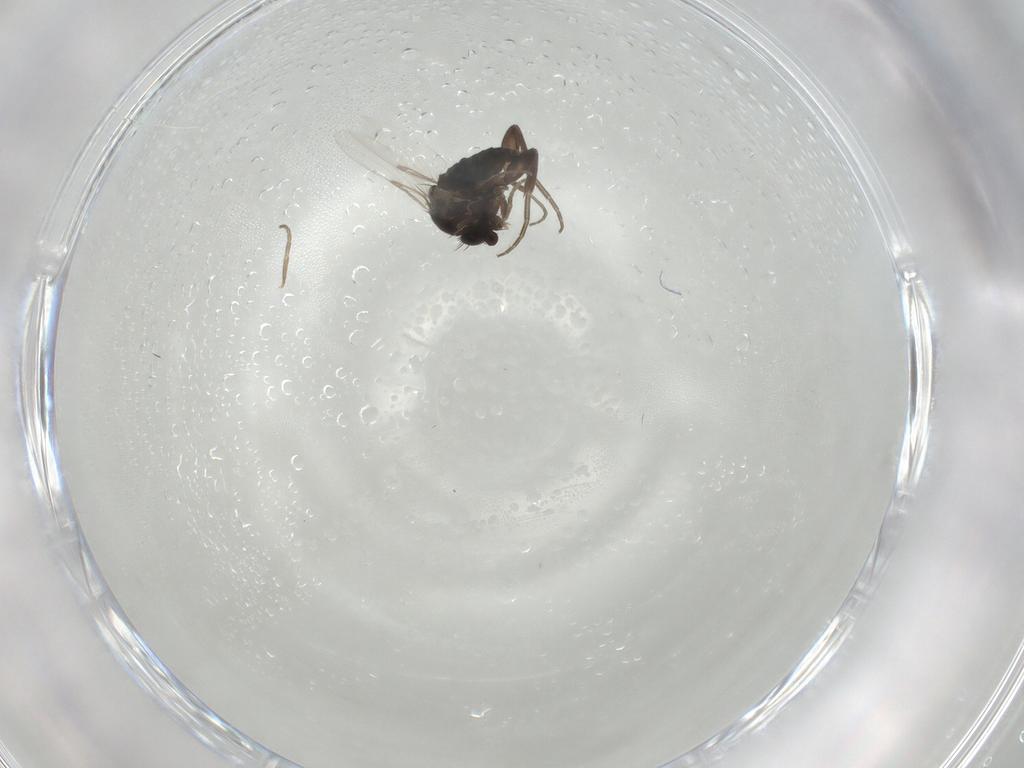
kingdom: Animalia
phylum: Arthropoda
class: Insecta
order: Diptera
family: Phoridae
